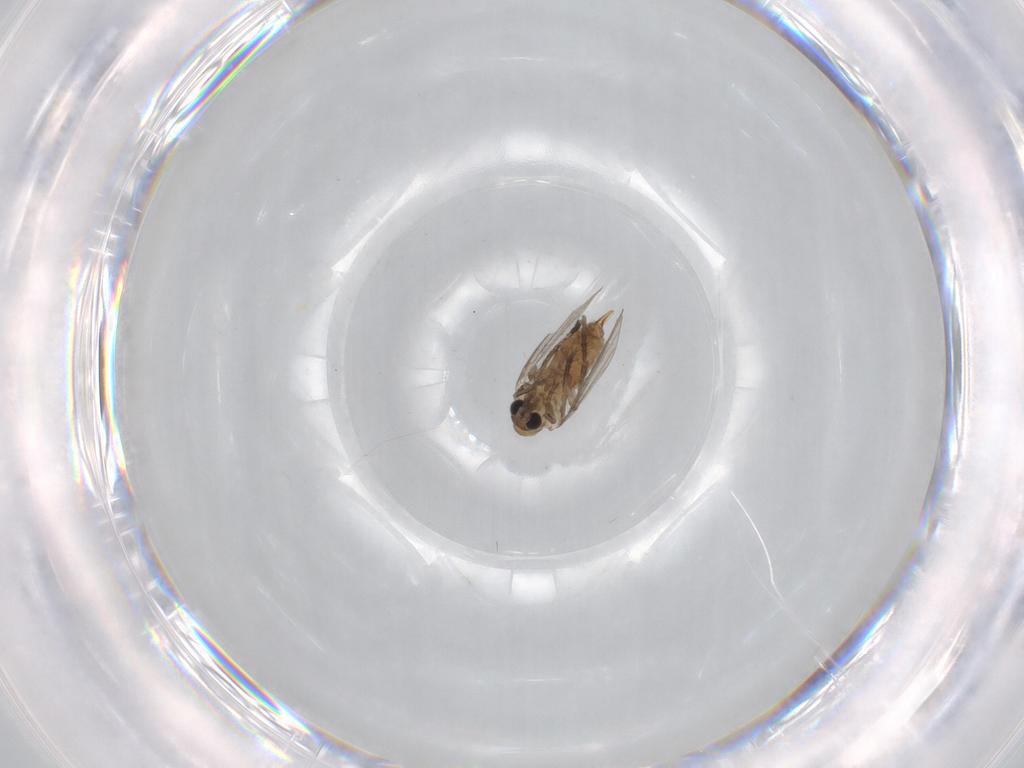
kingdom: Animalia
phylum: Arthropoda
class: Insecta
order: Diptera
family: Psychodidae
